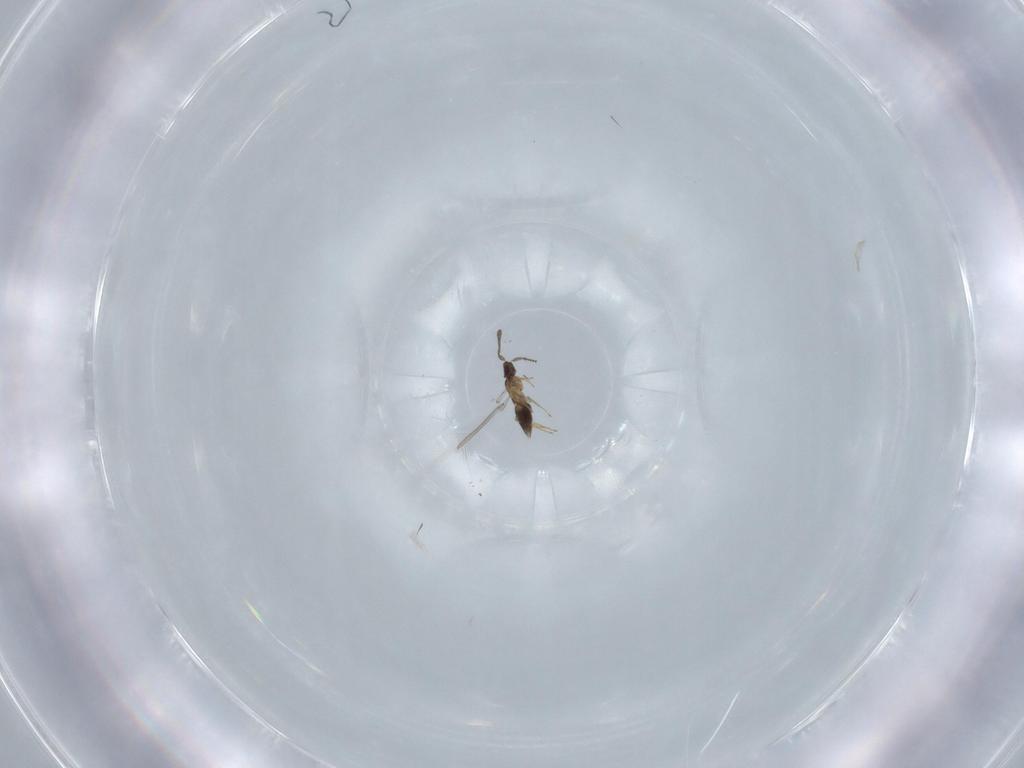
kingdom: Animalia
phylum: Arthropoda
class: Insecta
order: Hymenoptera
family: Mymaridae
